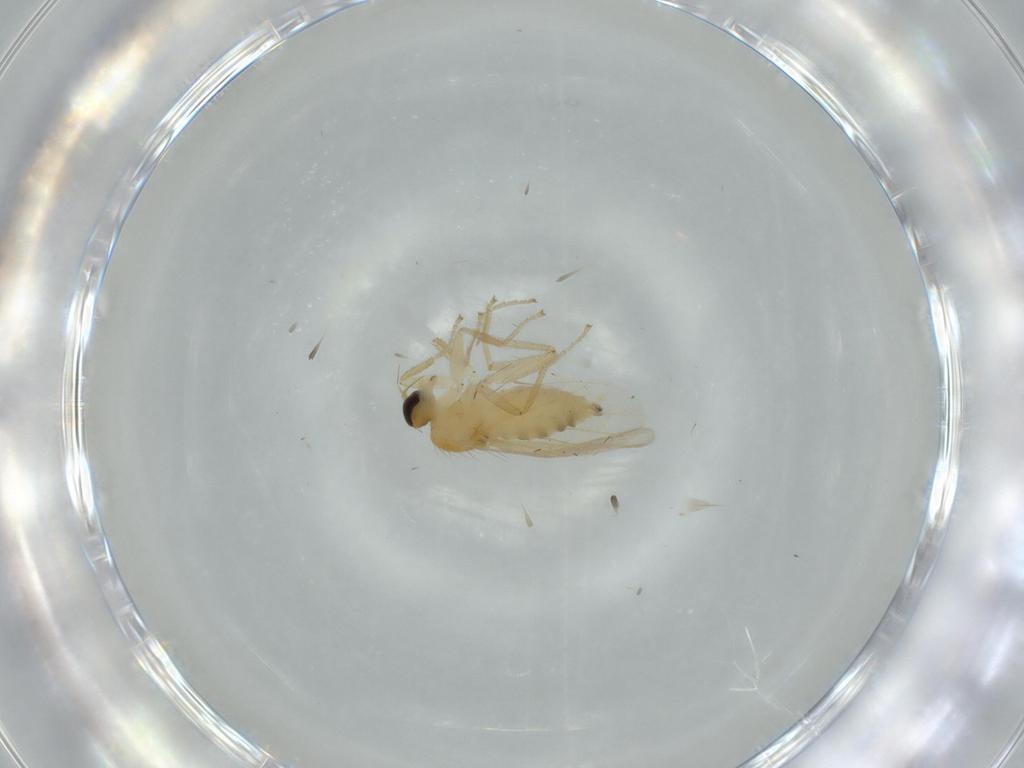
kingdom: Animalia
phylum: Arthropoda
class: Insecta
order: Diptera
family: Hybotidae
